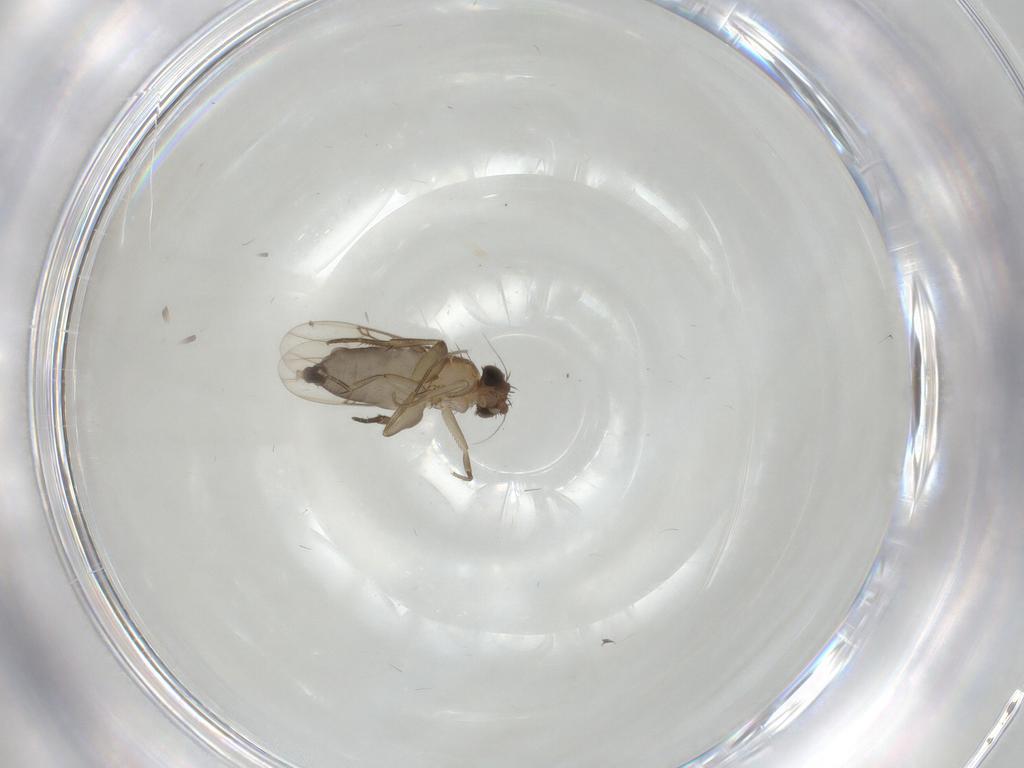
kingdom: Animalia
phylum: Arthropoda
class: Insecta
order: Diptera
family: Phoridae
